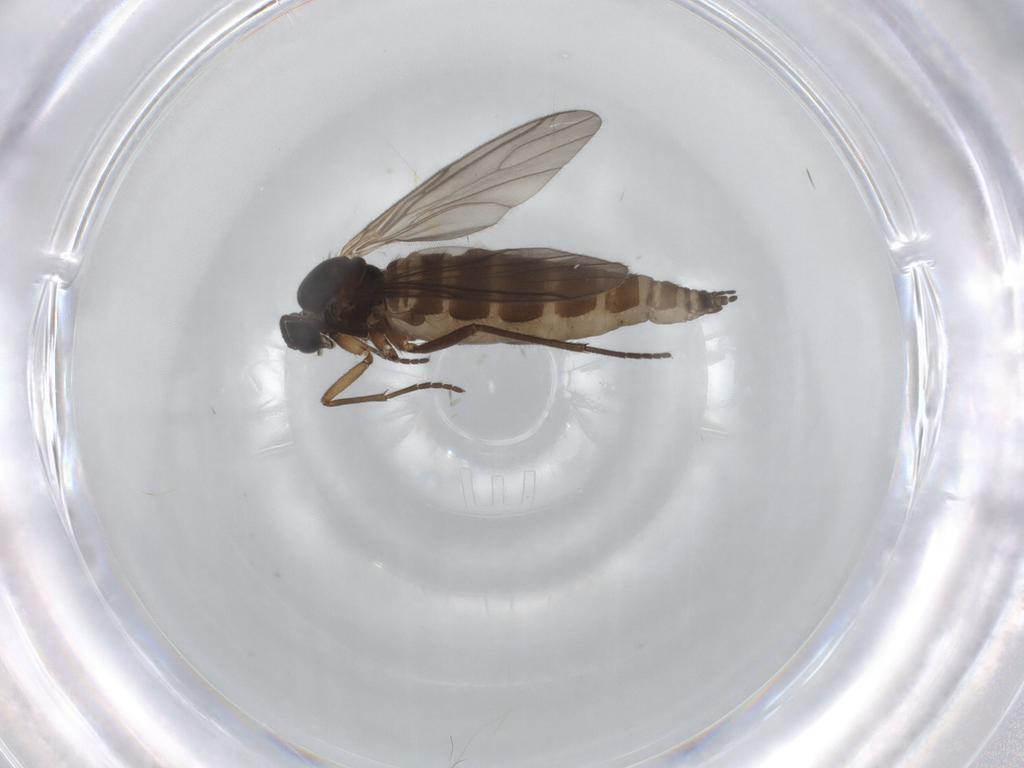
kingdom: Animalia
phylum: Arthropoda
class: Insecta
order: Diptera
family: Sciaridae
